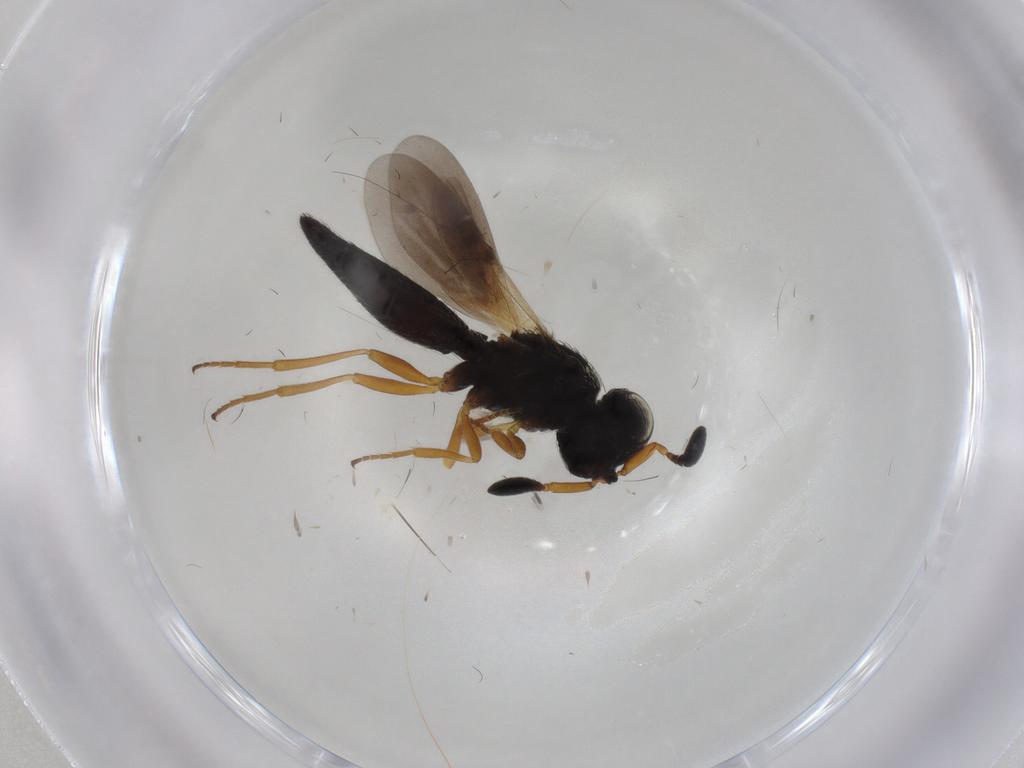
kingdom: Animalia
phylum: Arthropoda
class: Insecta
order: Hymenoptera
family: Scelionidae
